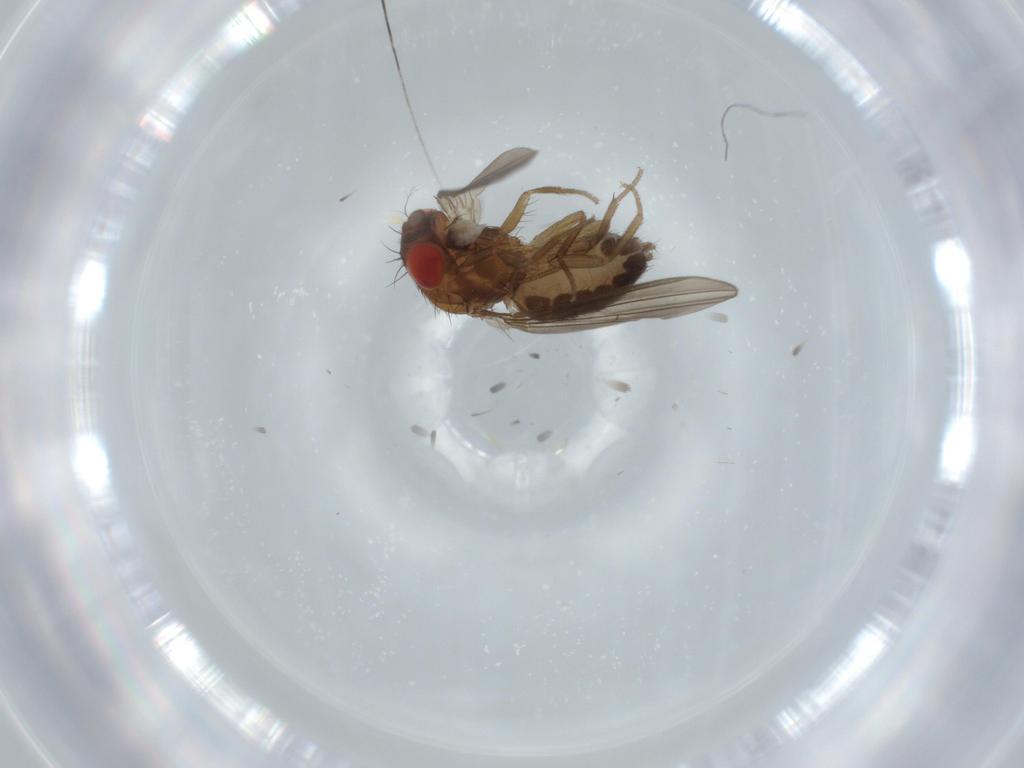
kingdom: Animalia
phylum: Arthropoda
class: Insecta
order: Diptera
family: Drosophilidae
